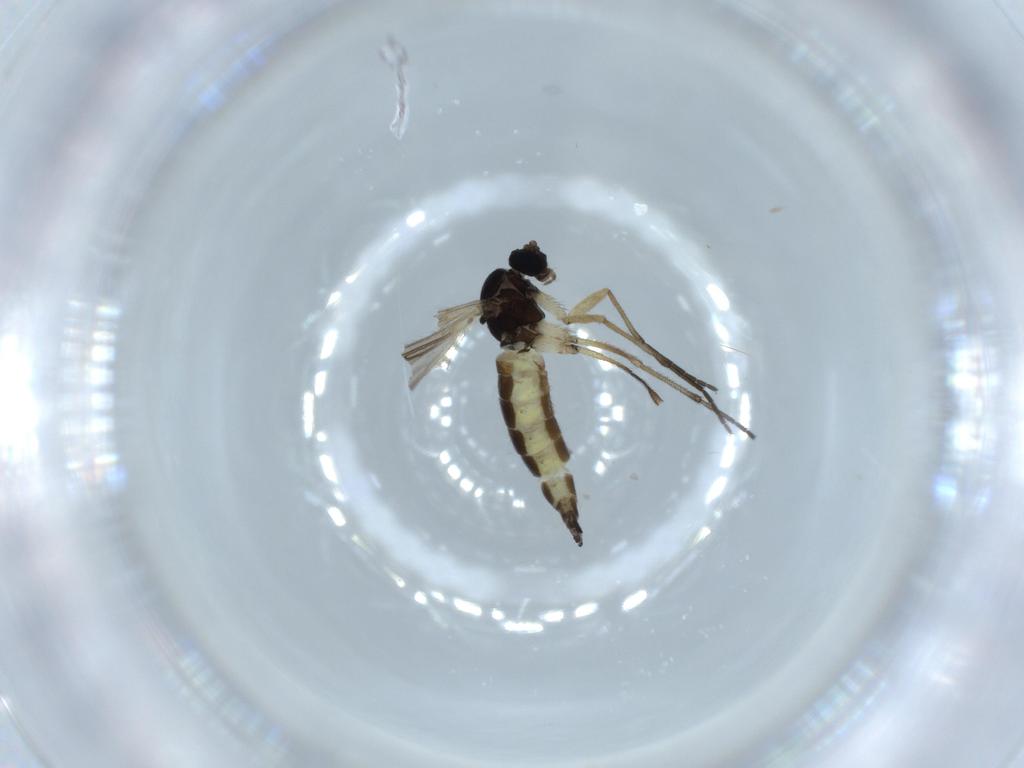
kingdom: Animalia
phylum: Arthropoda
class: Insecta
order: Diptera
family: Sciaridae
